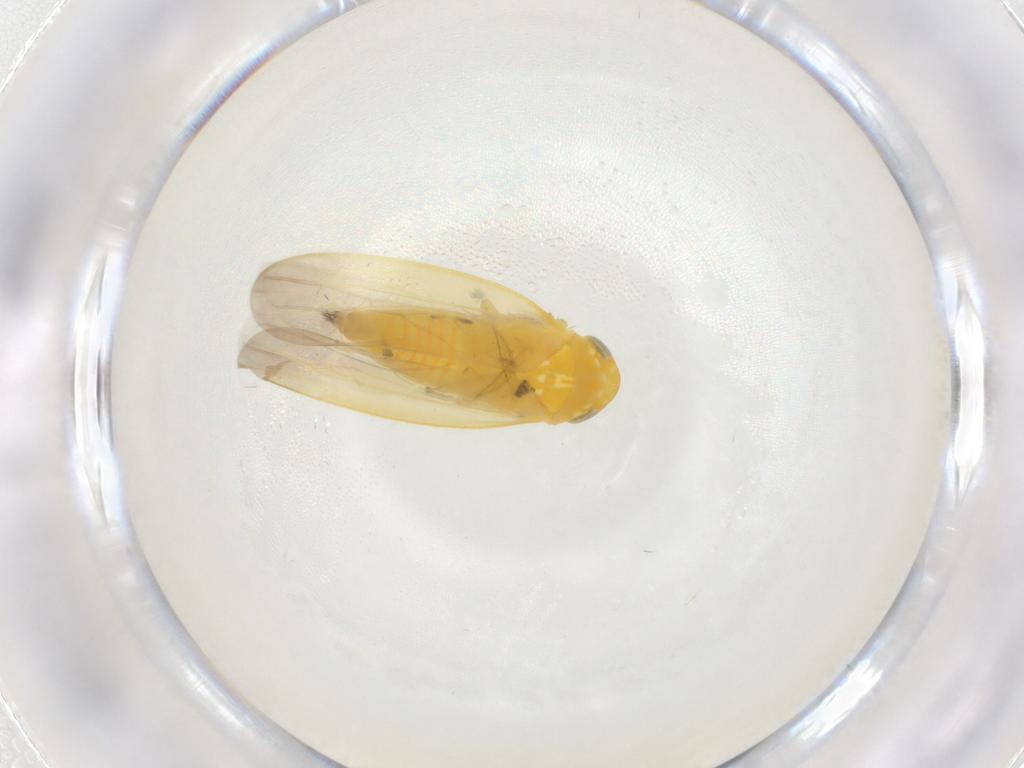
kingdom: Animalia
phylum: Arthropoda
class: Insecta
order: Hemiptera
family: Cicadellidae
